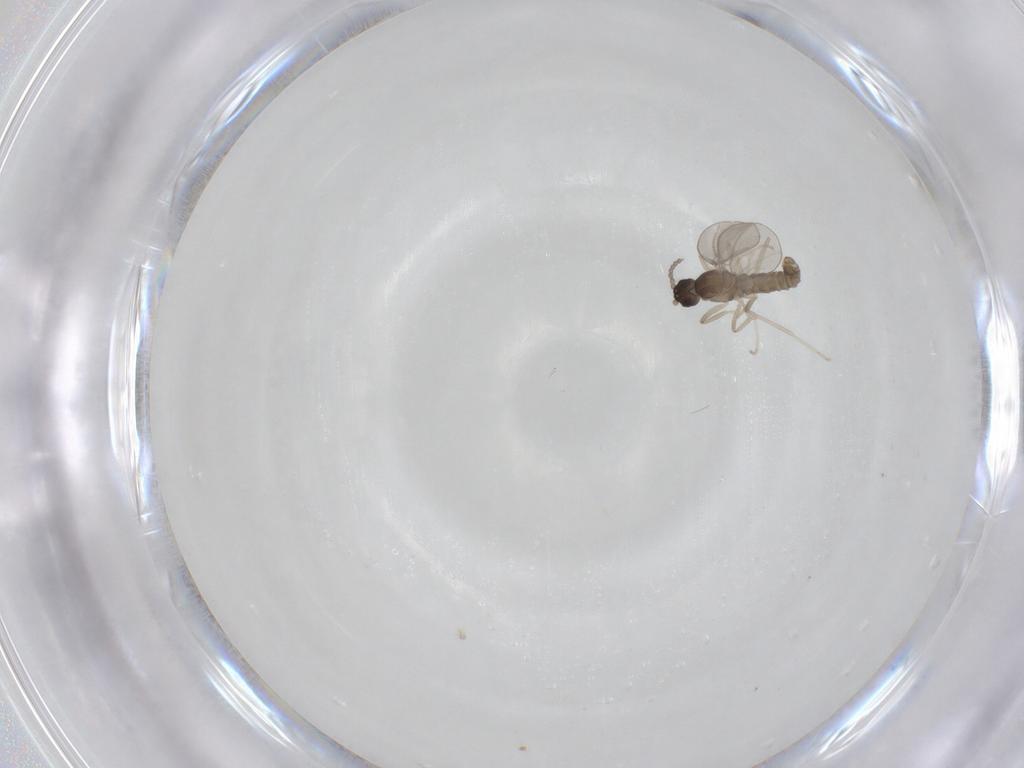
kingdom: Animalia
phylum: Arthropoda
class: Insecta
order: Diptera
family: Cecidomyiidae
